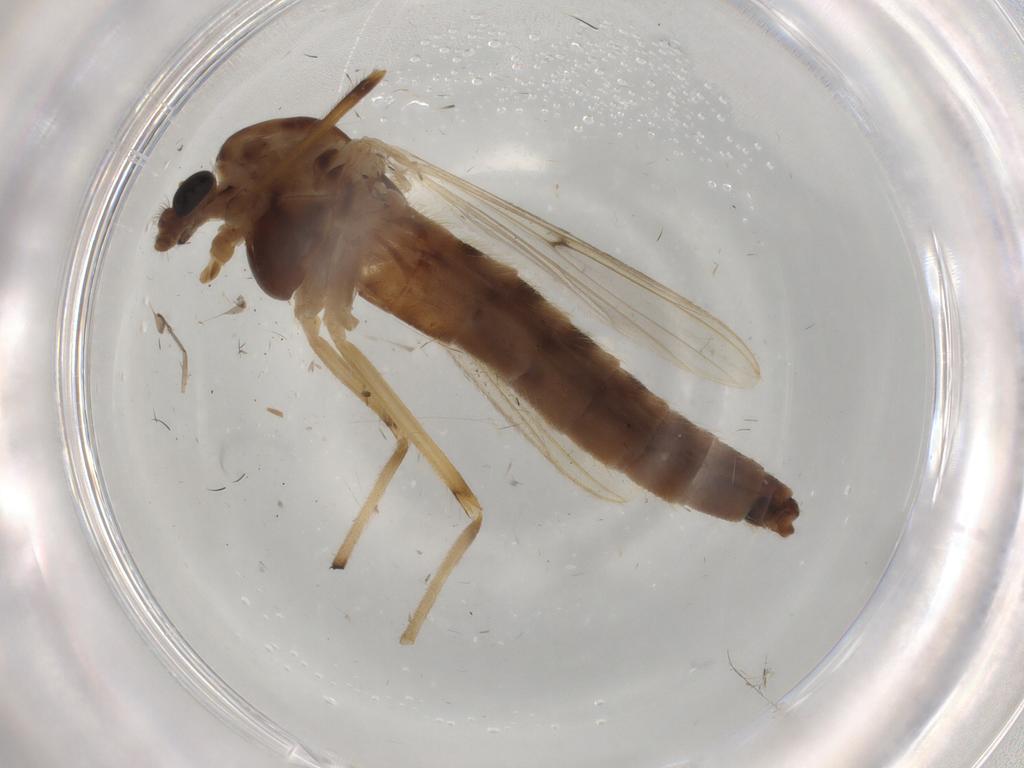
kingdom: Animalia
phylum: Arthropoda
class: Insecta
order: Diptera
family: Chironomidae
